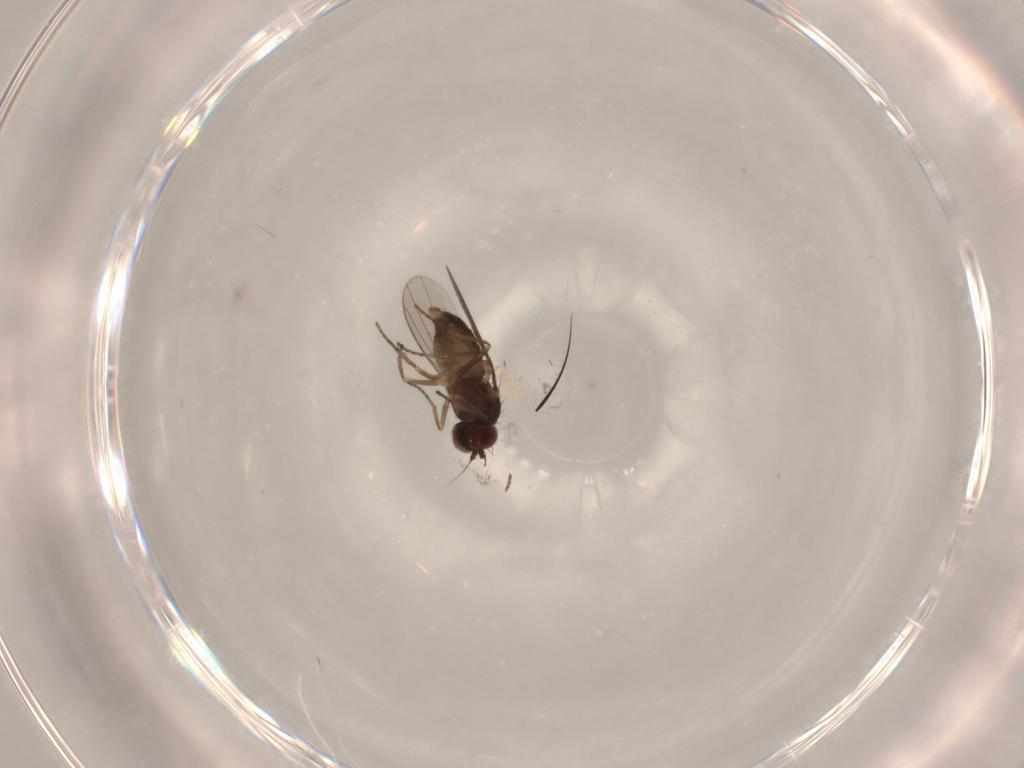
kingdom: Animalia
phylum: Arthropoda
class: Insecta
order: Diptera
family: Dolichopodidae
